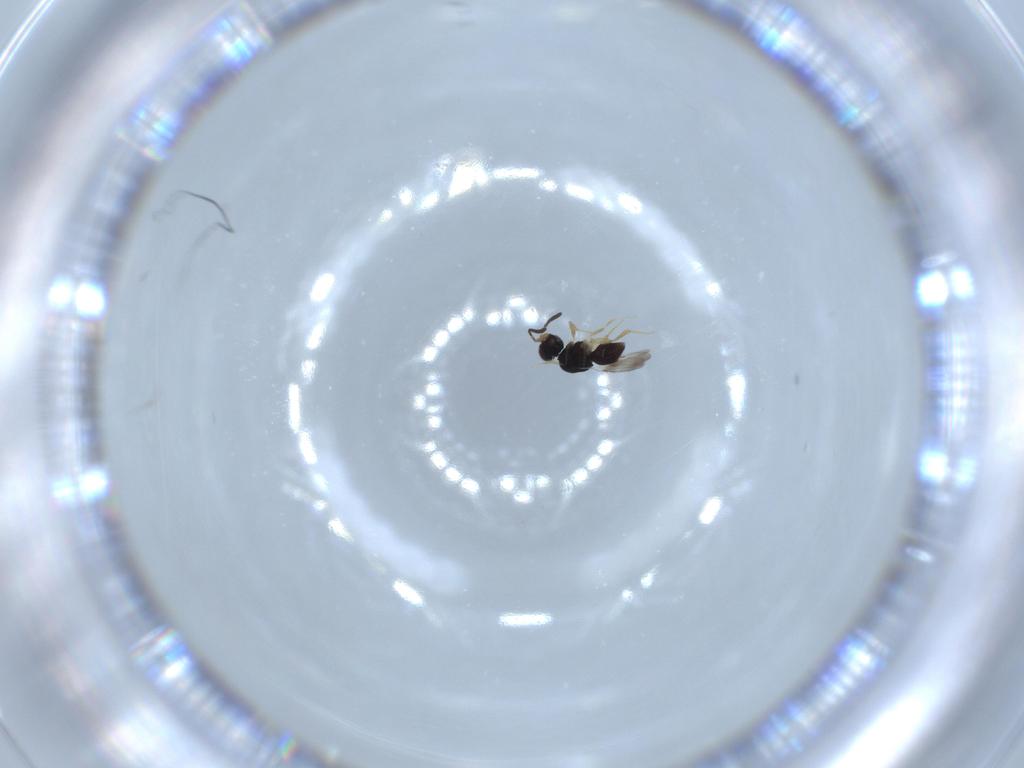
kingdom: Animalia
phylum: Arthropoda
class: Insecta
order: Hymenoptera
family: Ceraphronidae
